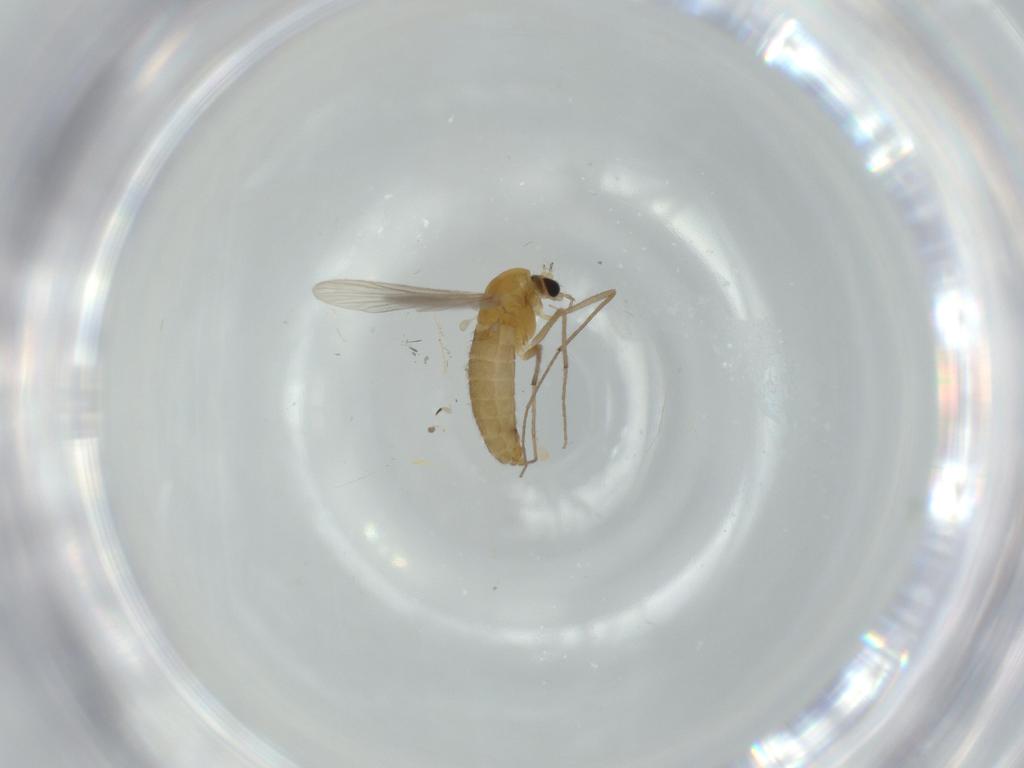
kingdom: Animalia
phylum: Arthropoda
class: Insecta
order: Diptera
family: Chironomidae
